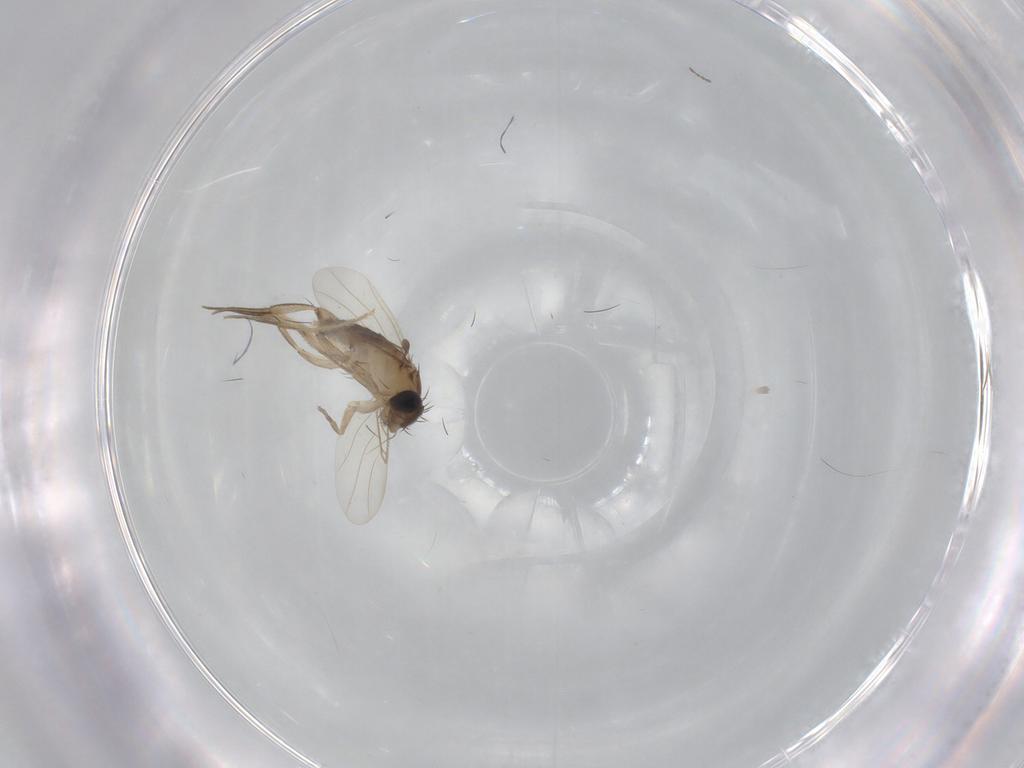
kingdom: Animalia
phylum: Arthropoda
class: Insecta
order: Diptera
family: Phoridae
